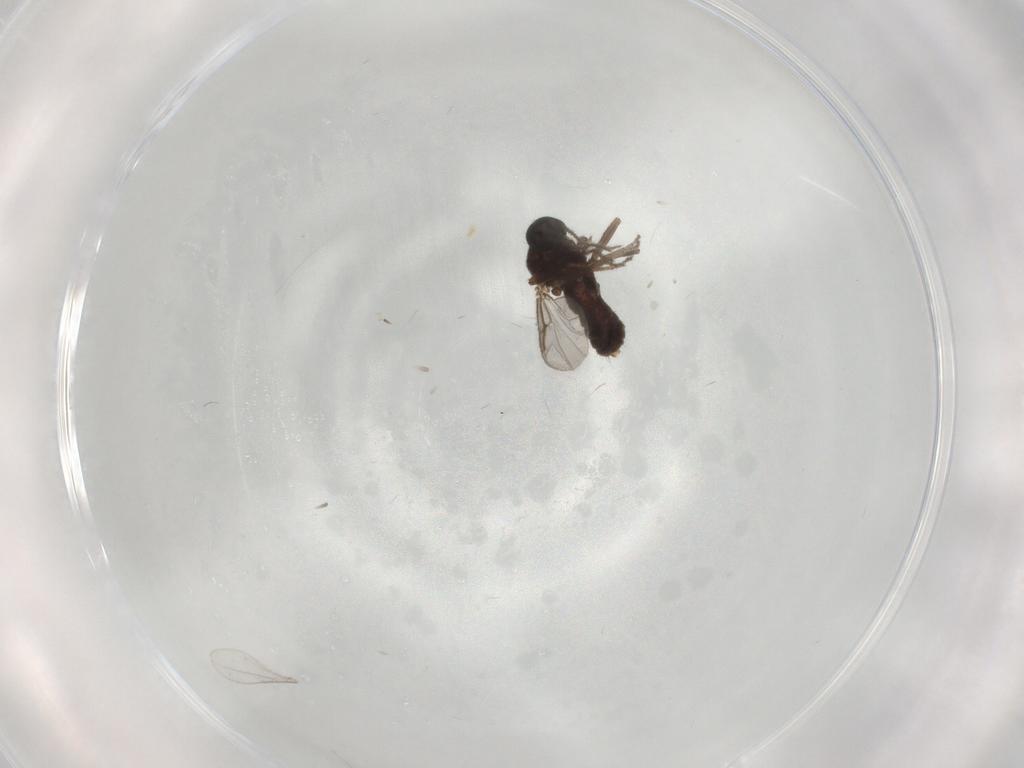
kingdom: Animalia
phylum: Arthropoda
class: Insecta
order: Diptera
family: Ceratopogonidae
